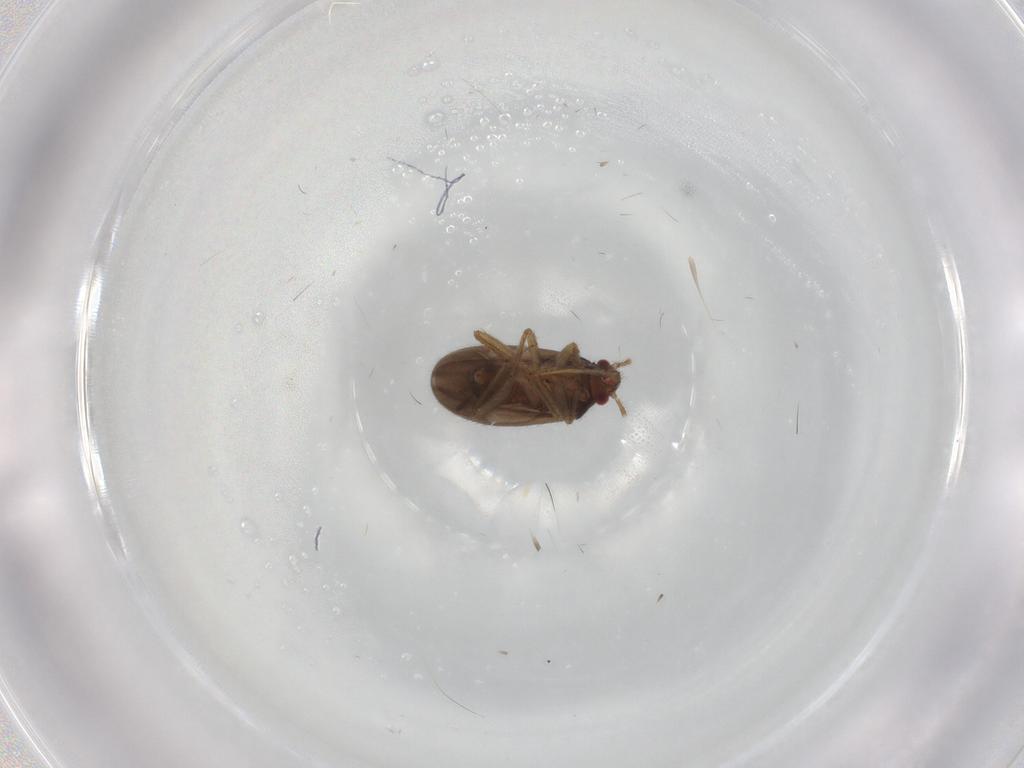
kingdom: Animalia
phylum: Arthropoda
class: Insecta
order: Hemiptera
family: Ceratocombidae
